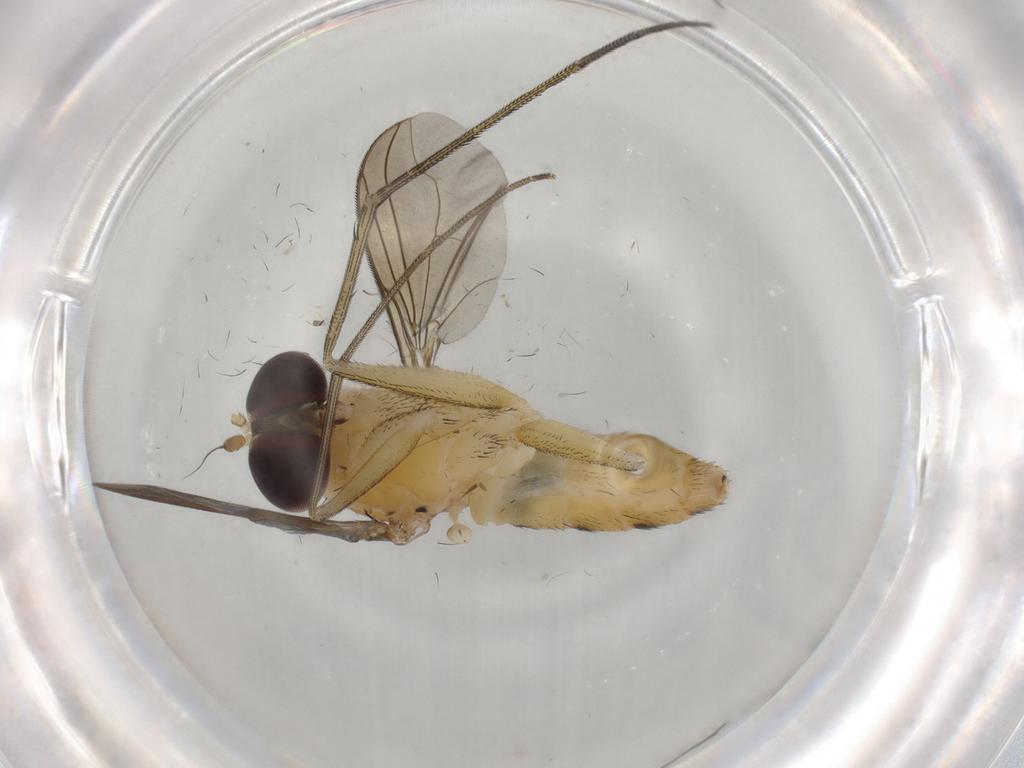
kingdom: Animalia
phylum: Arthropoda
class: Insecta
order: Diptera
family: Dolichopodidae
